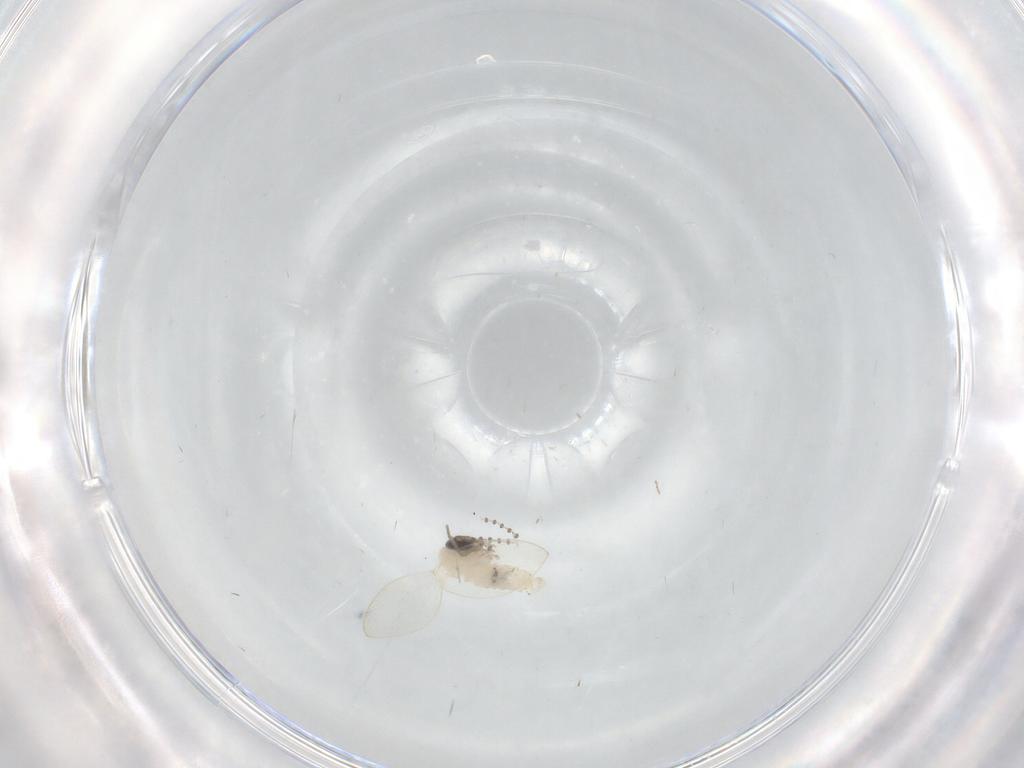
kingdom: Animalia
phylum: Arthropoda
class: Insecta
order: Diptera
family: Psychodidae
